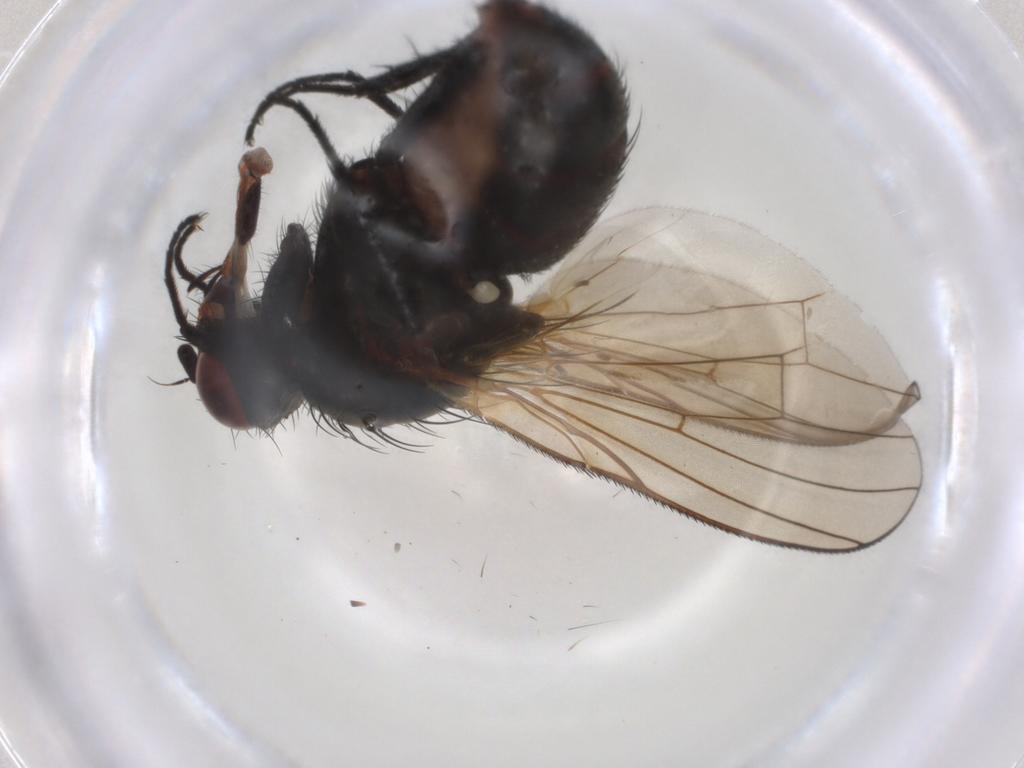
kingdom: Animalia
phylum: Arthropoda
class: Insecta
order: Diptera
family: Anthomyiidae
